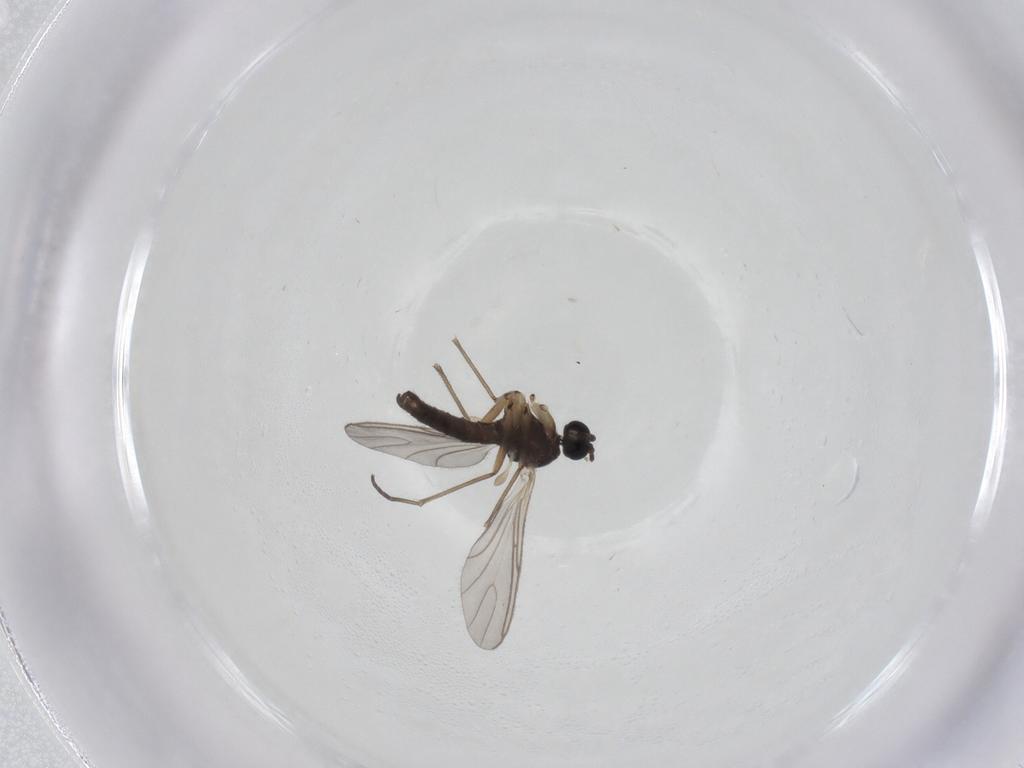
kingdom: Animalia
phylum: Arthropoda
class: Insecta
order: Diptera
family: Sciaridae
